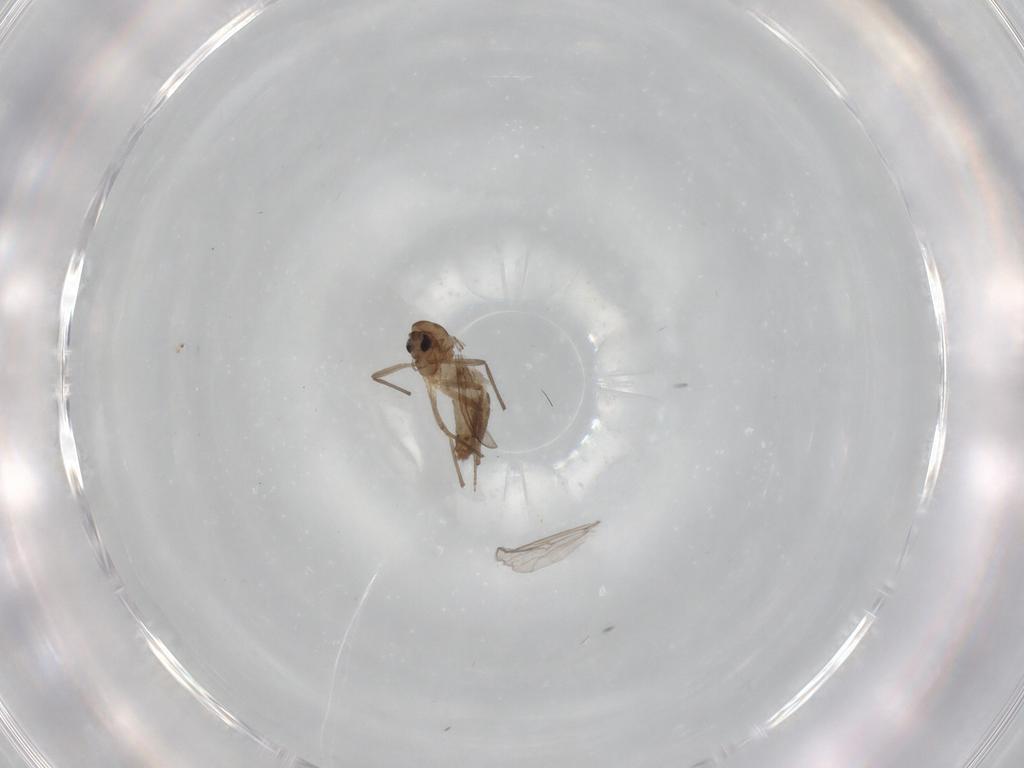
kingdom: Animalia
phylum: Arthropoda
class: Insecta
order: Diptera
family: Chironomidae
